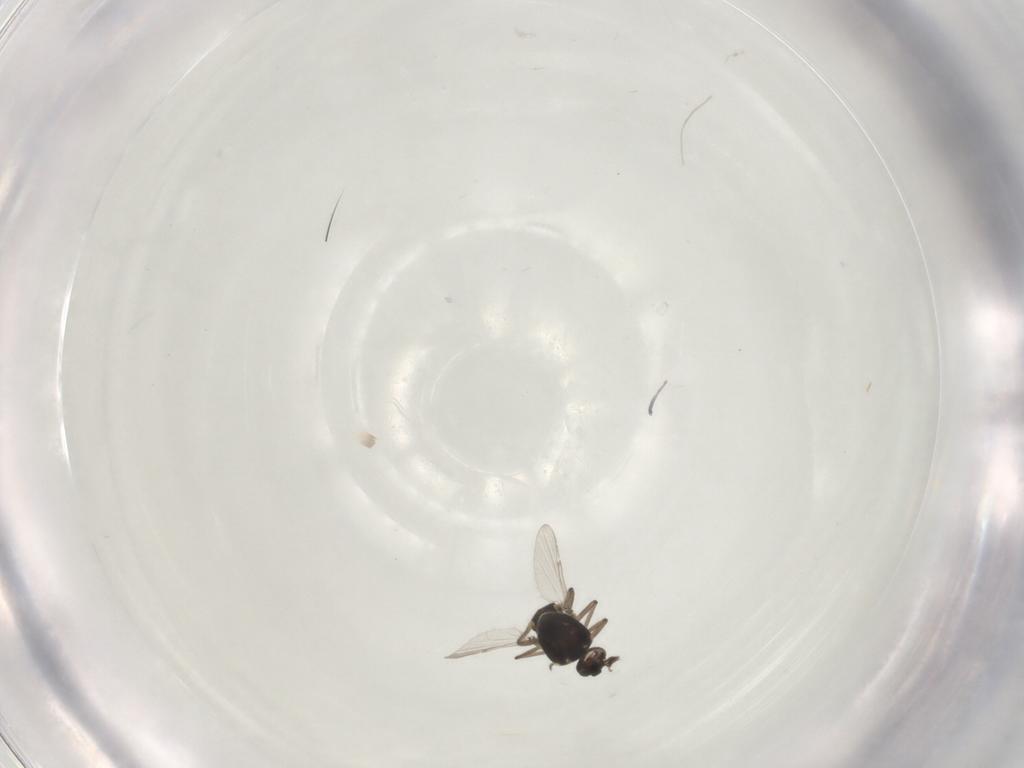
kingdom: Animalia
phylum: Arthropoda
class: Insecta
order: Diptera
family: Ceratopogonidae
